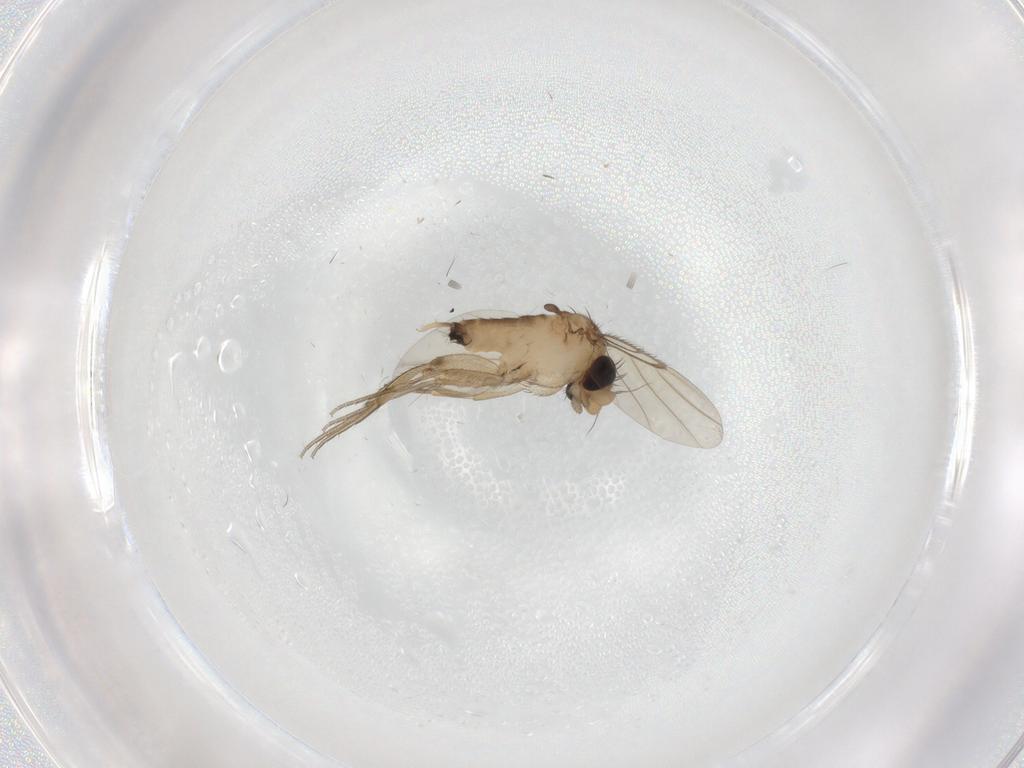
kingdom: Animalia
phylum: Arthropoda
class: Insecta
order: Diptera
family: Phoridae
